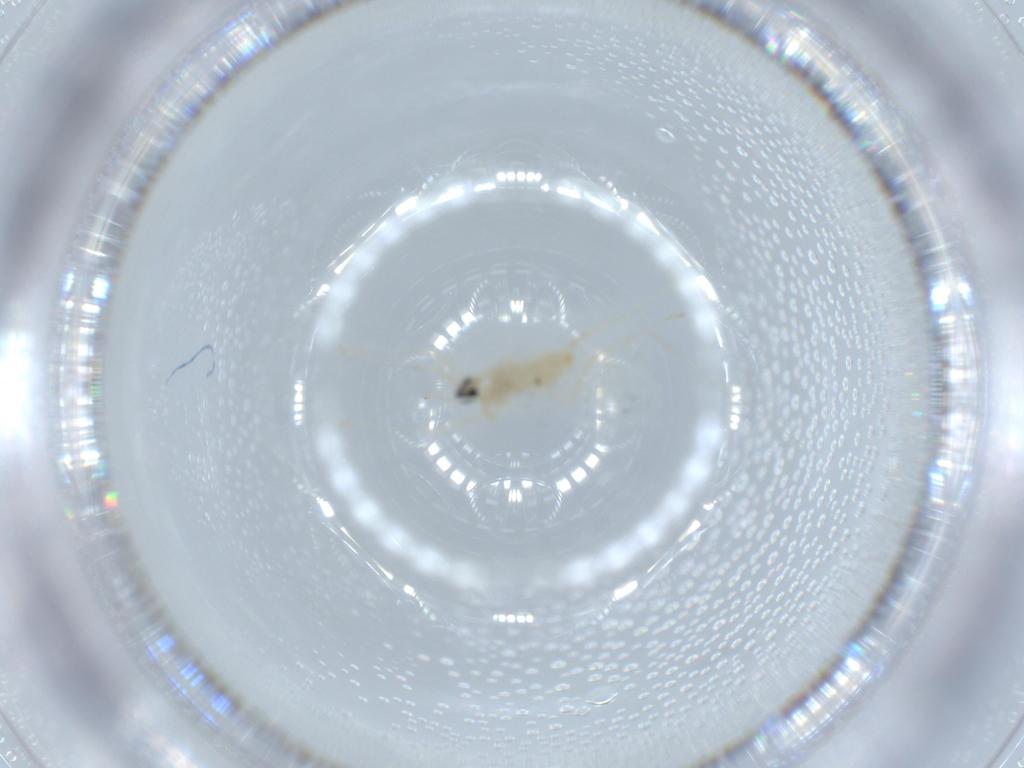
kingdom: Animalia
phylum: Arthropoda
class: Insecta
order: Diptera
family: Cecidomyiidae
